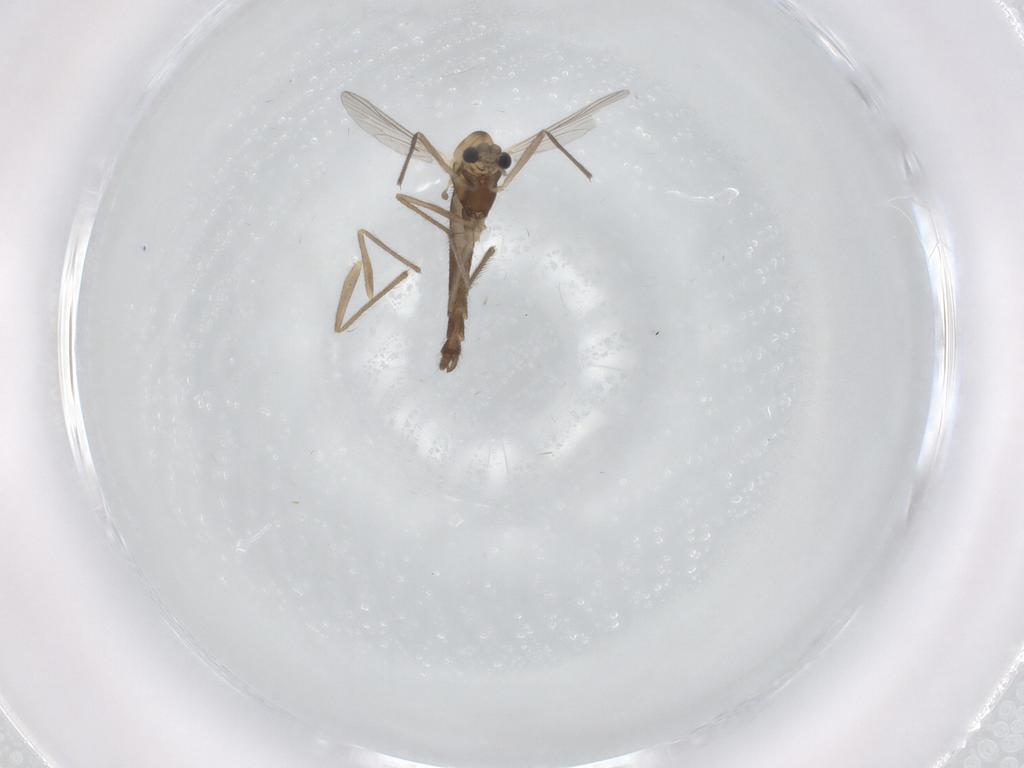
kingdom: Animalia
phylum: Arthropoda
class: Insecta
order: Diptera
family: Chironomidae
